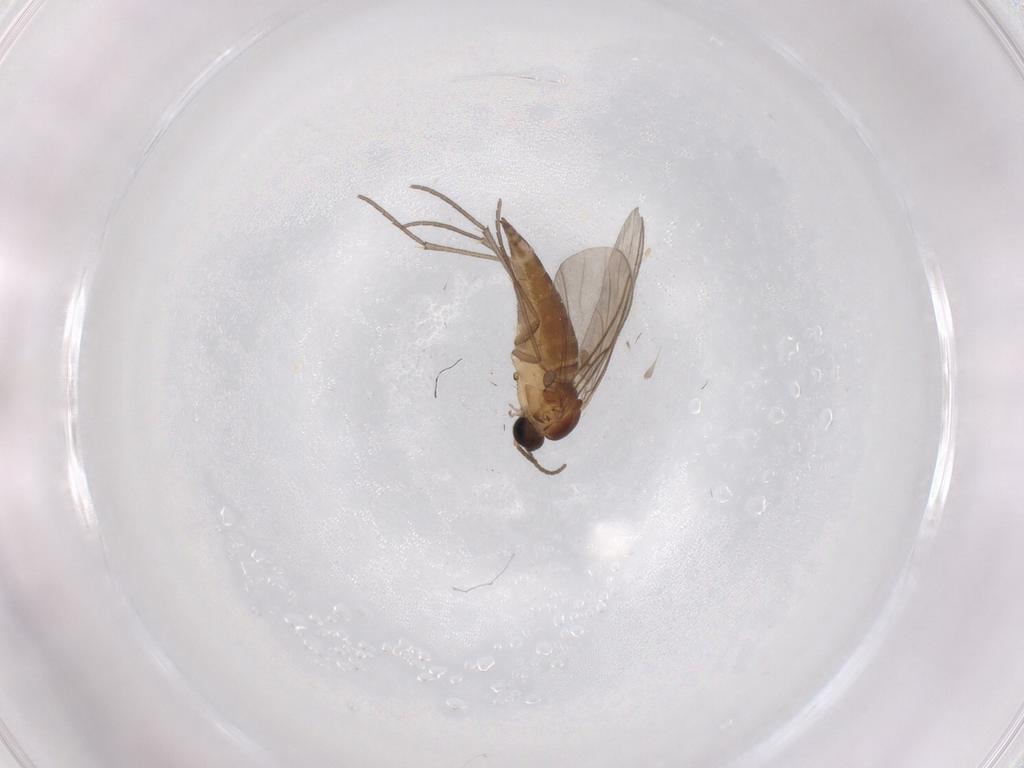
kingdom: Animalia
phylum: Arthropoda
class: Insecta
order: Diptera
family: Sciaridae
